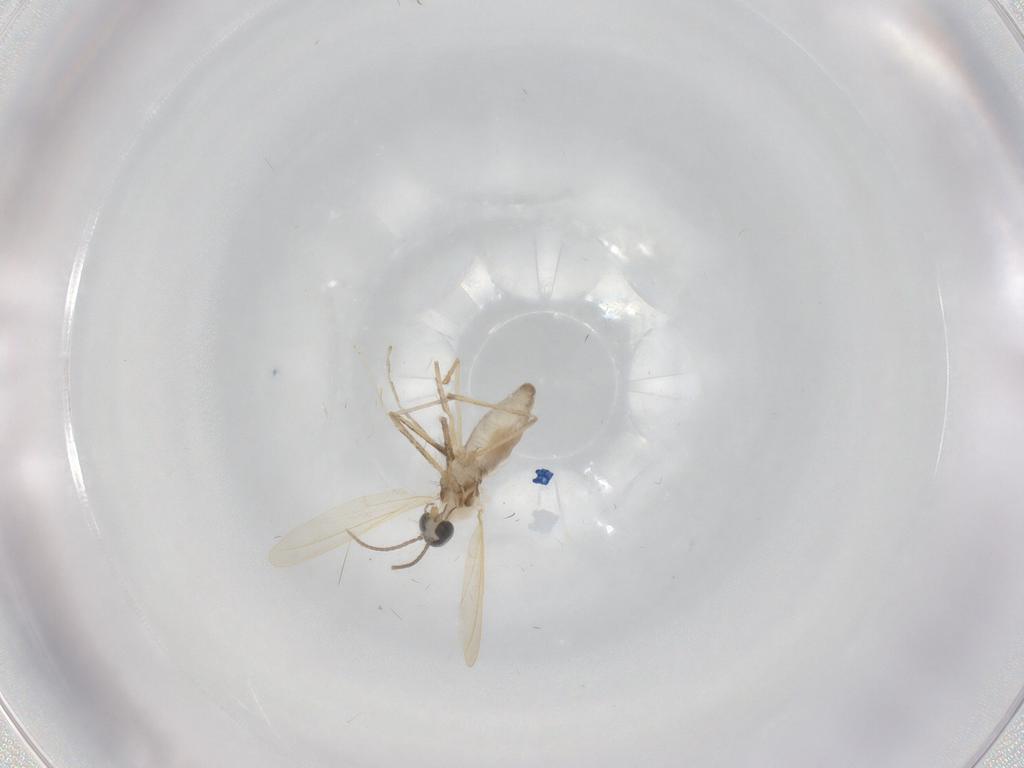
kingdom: Animalia
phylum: Arthropoda
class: Insecta
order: Diptera
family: Cecidomyiidae
